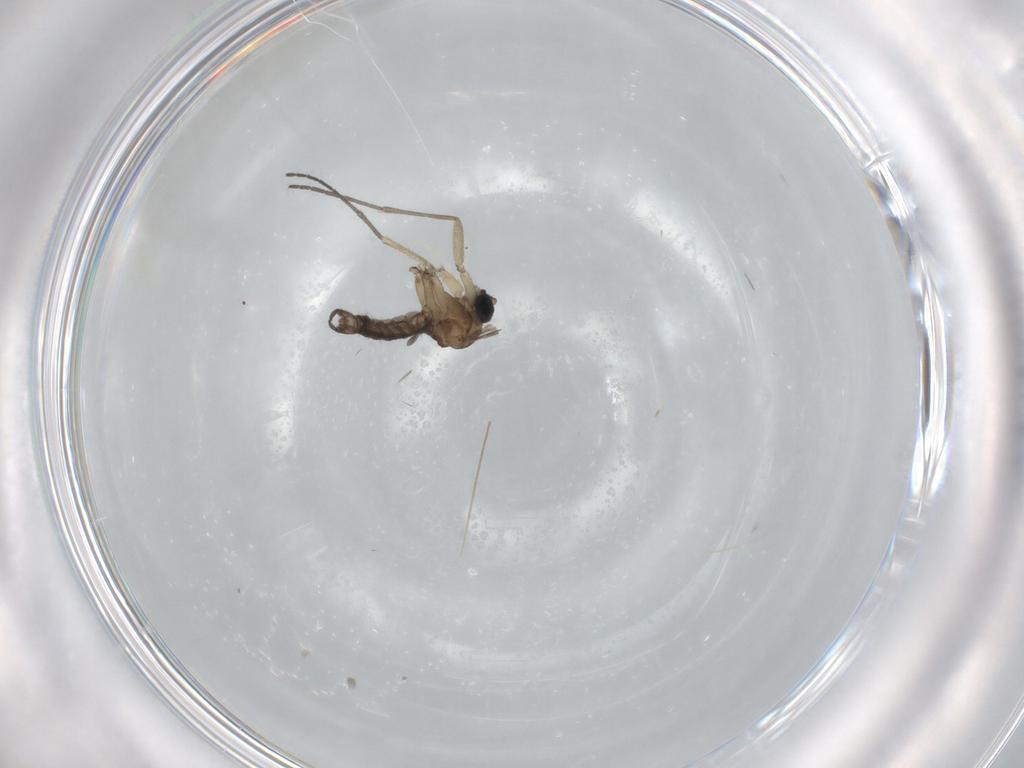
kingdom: Animalia
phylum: Arthropoda
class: Insecta
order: Diptera
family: Sciaridae
